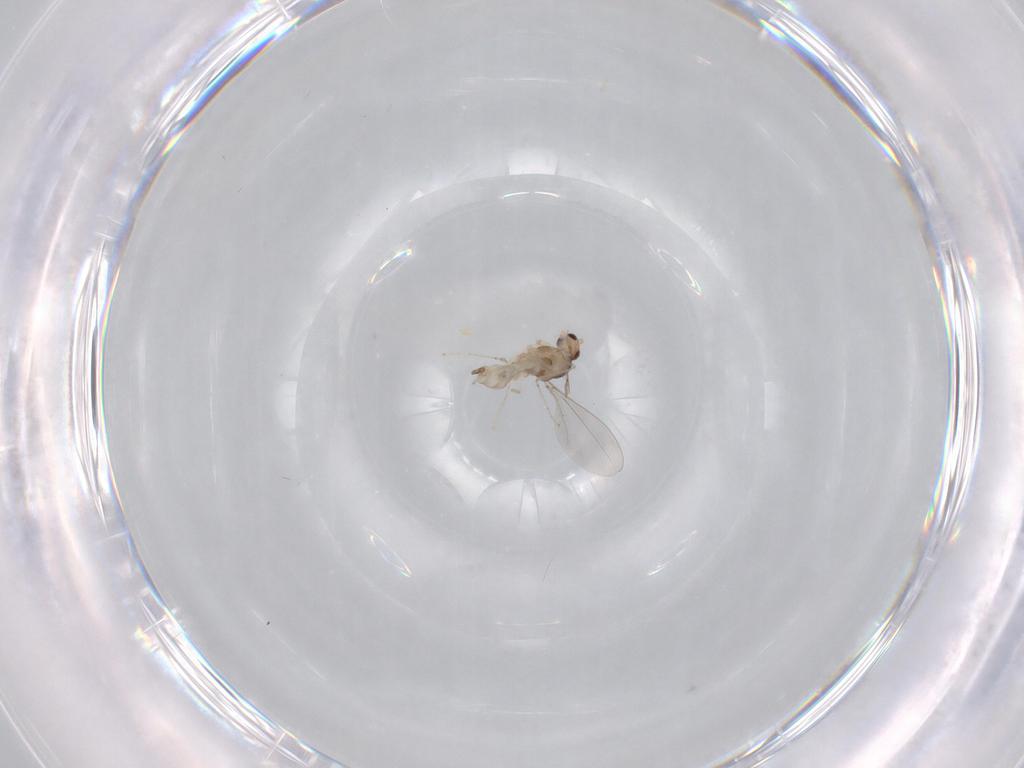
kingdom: Animalia
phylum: Arthropoda
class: Insecta
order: Diptera
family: Cecidomyiidae
